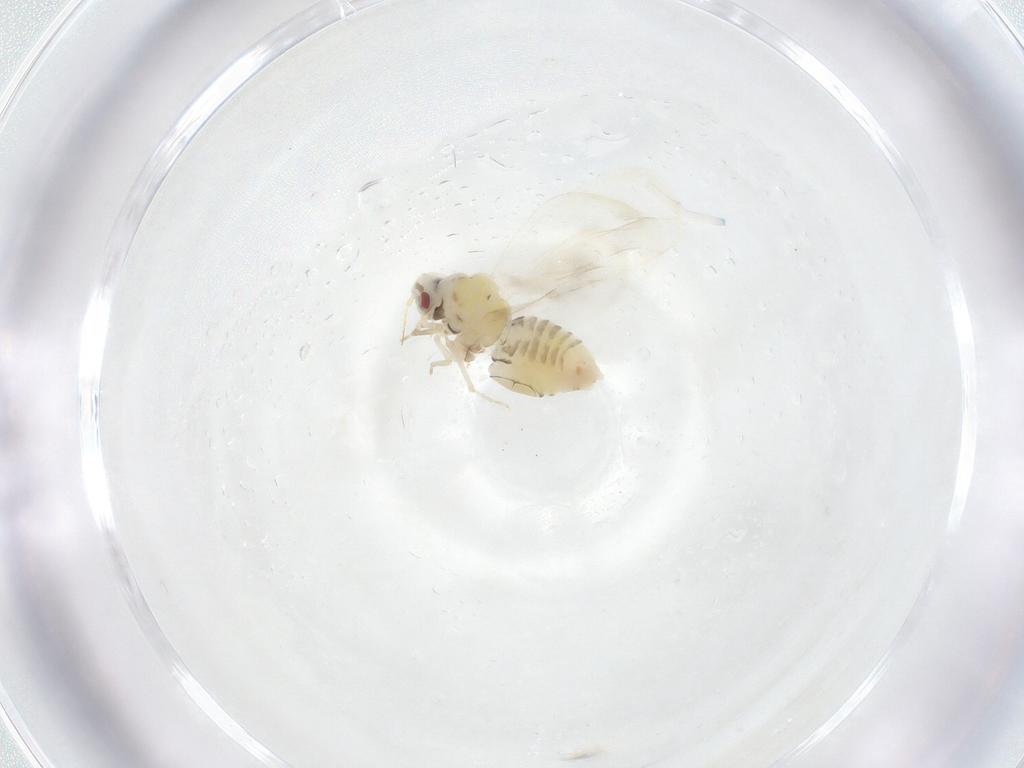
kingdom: Animalia
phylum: Arthropoda
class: Insecta
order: Hemiptera
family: Aleyrodidae
